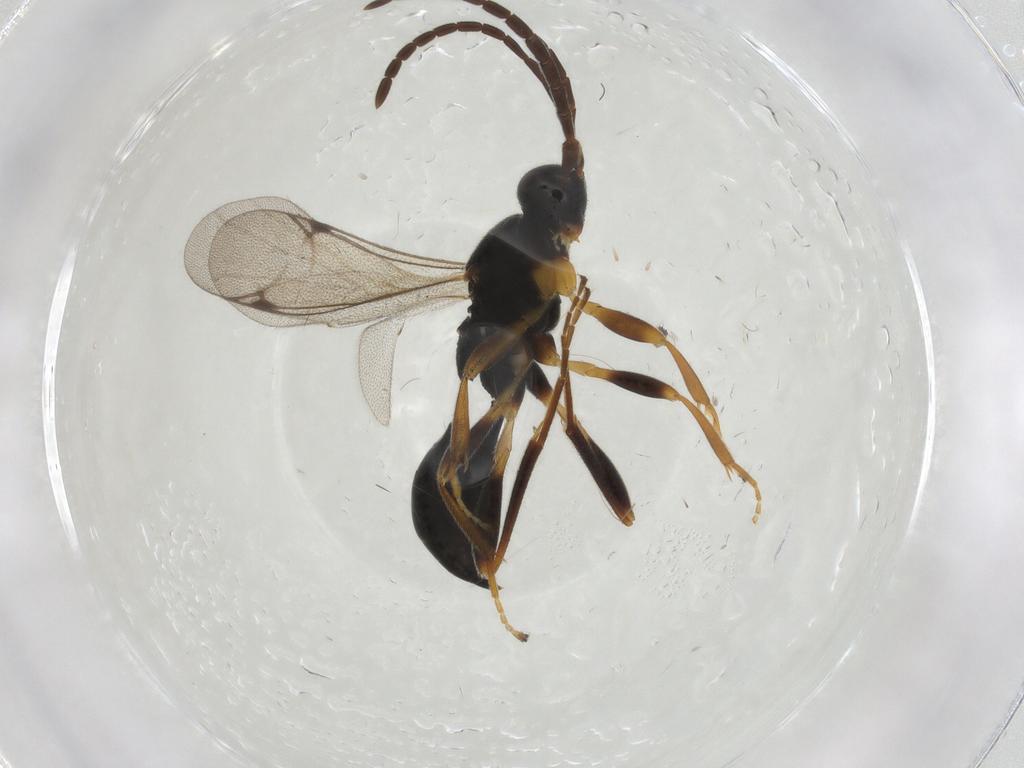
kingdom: Animalia
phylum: Arthropoda
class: Insecta
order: Hymenoptera
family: Proctotrupidae
